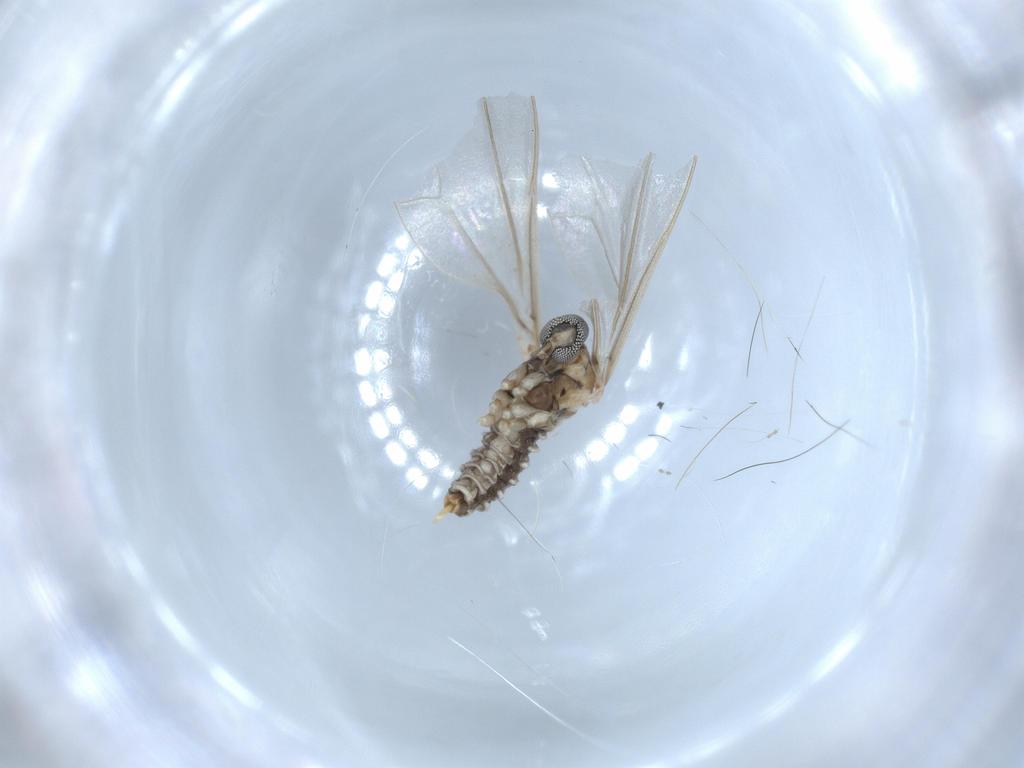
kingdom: Animalia
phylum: Arthropoda
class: Insecta
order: Diptera
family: Cecidomyiidae
